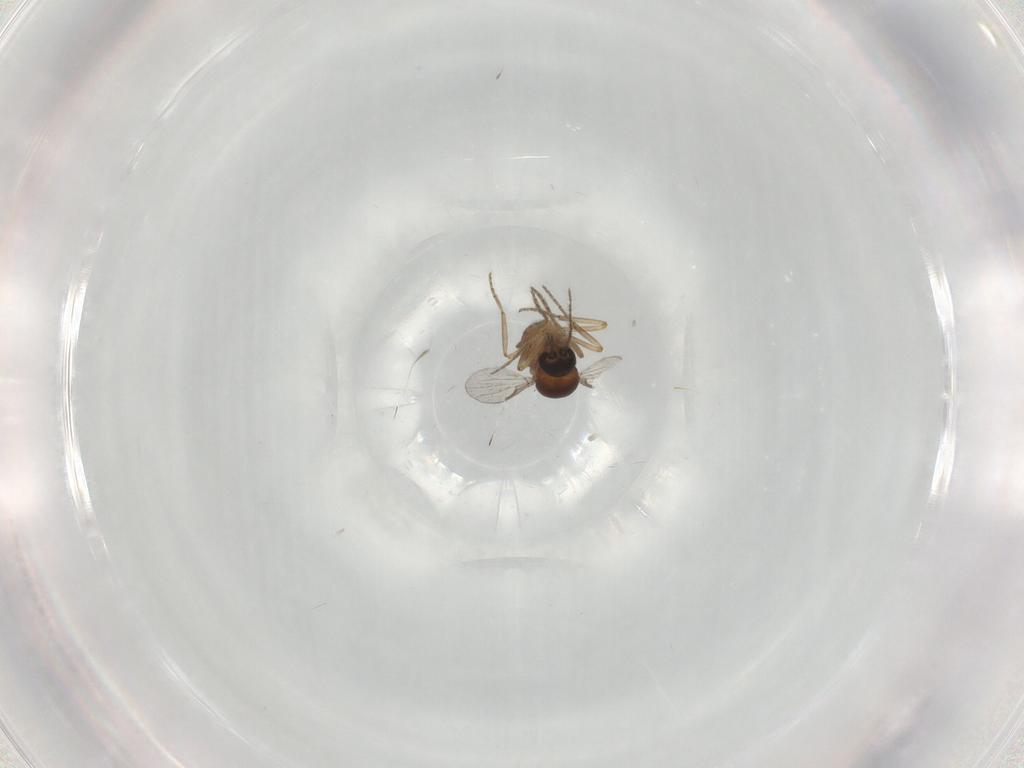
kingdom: Animalia
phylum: Arthropoda
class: Insecta
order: Diptera
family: Ceratopogonidae
